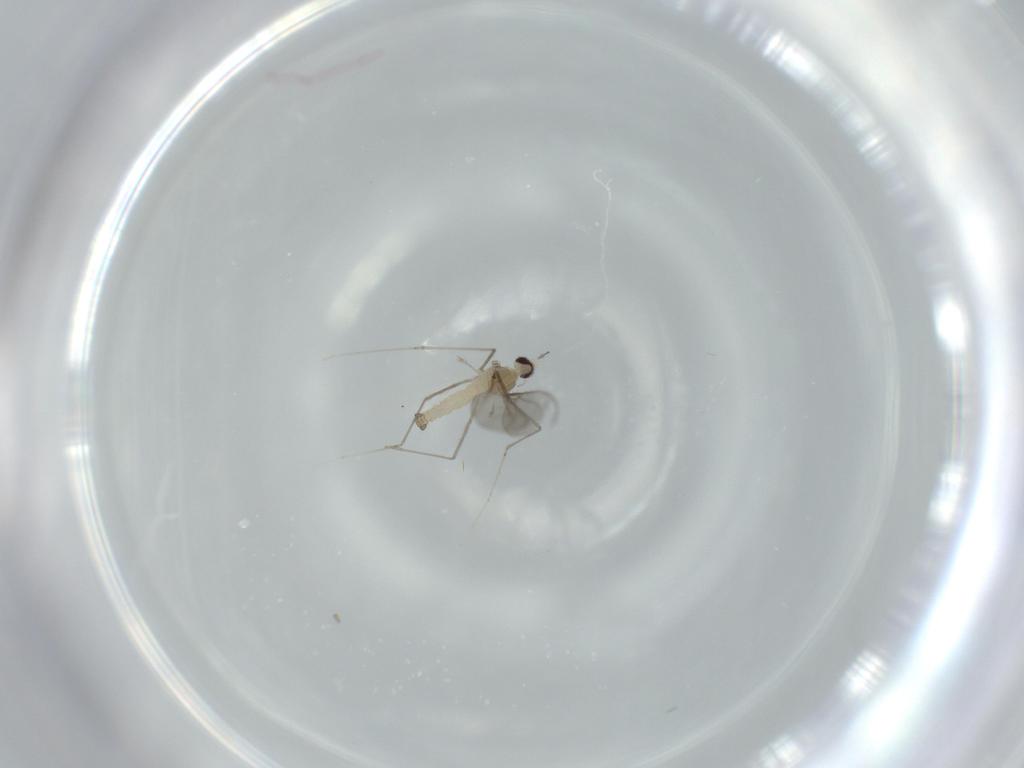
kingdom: Animalia
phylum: Arthropoda
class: Insecta
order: Diptera
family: Cecidomyiidae
